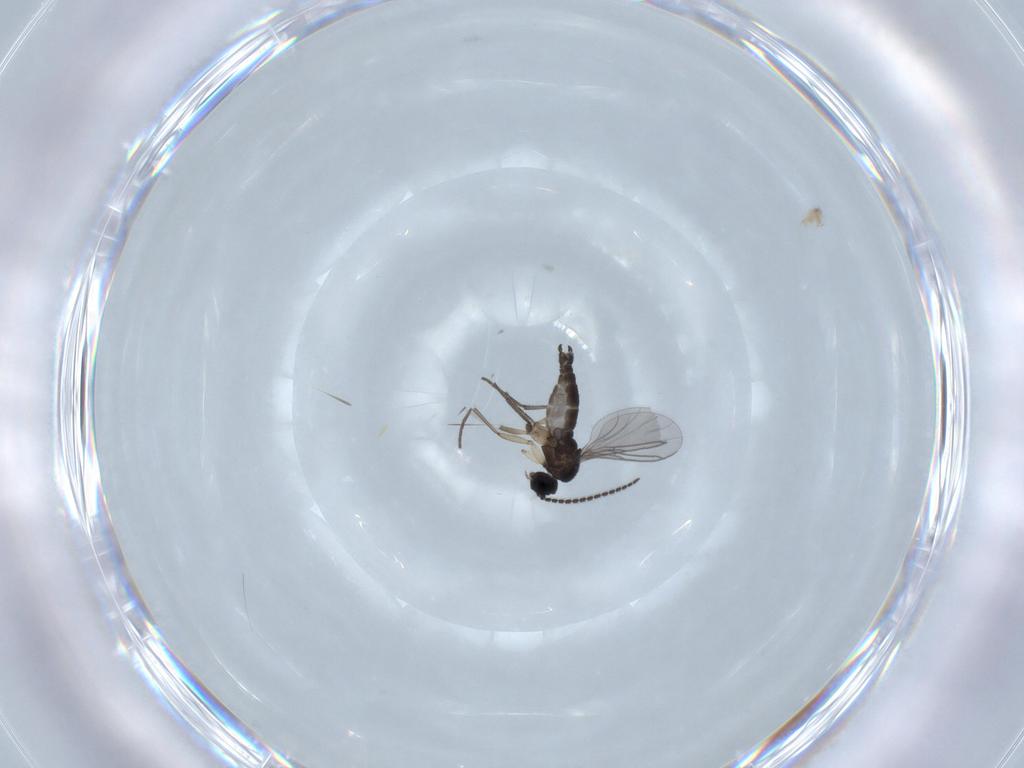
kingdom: Animalia
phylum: Arthropoda
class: Insecta
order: Diptera
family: Sciaridae
